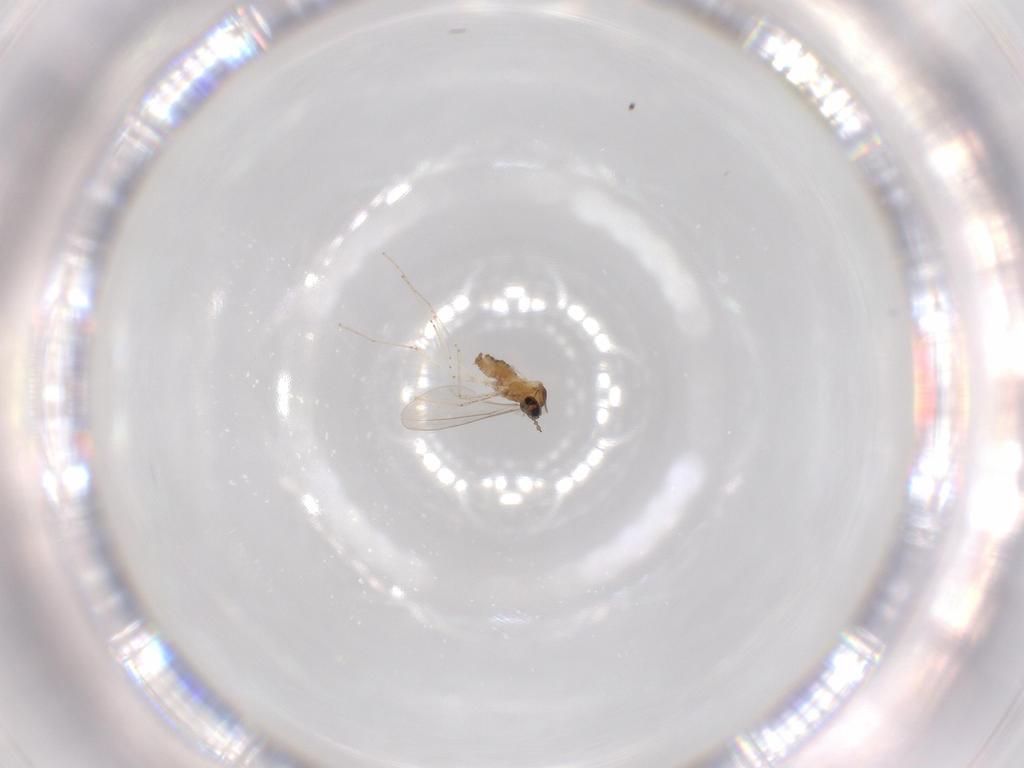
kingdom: Animalia
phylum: Arthropoda
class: Insecta
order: Diptera
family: Cecidomyiidae
